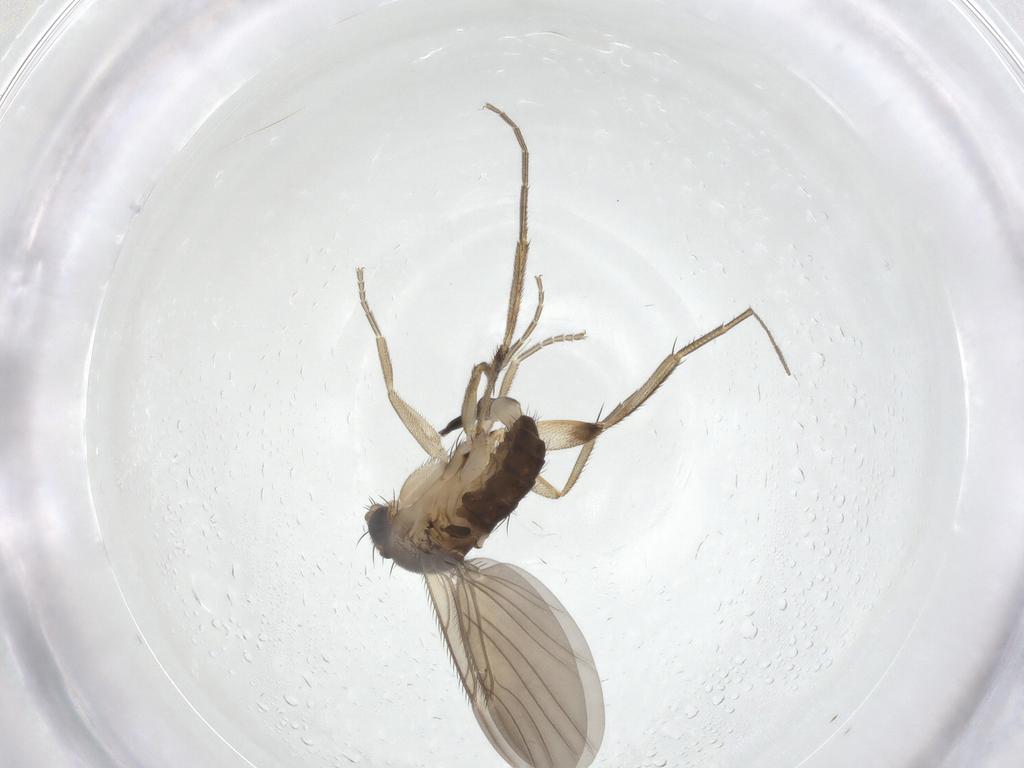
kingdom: Animalia
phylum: Arthropoda
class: Insecta
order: Diptera
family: Phoridae
